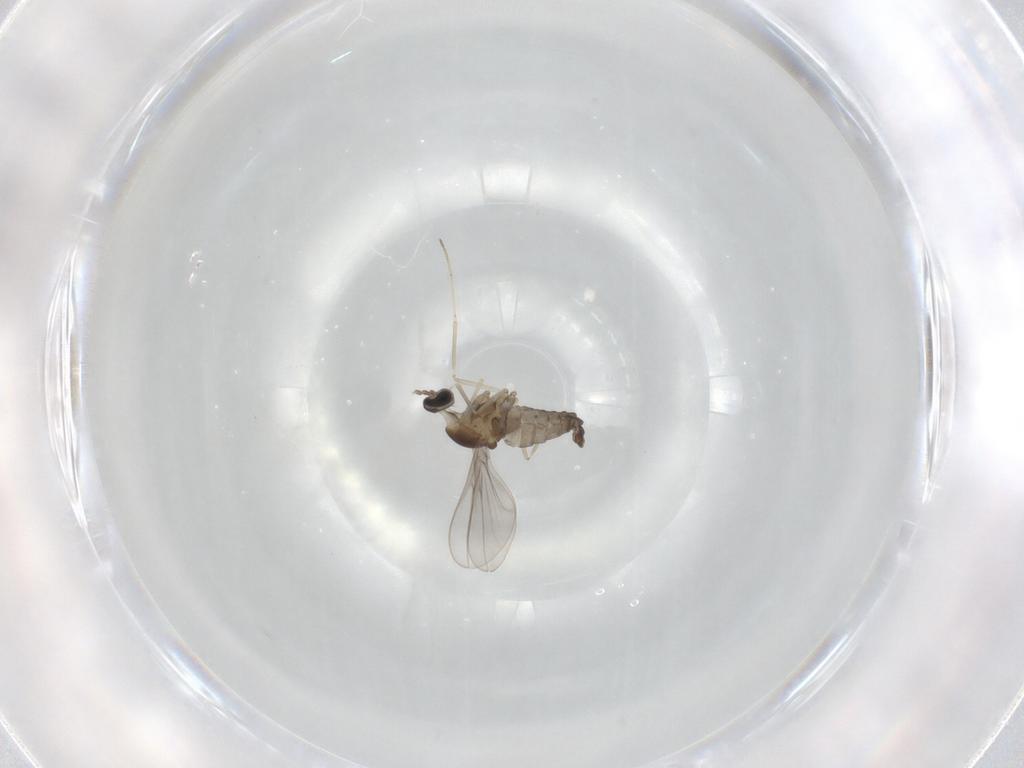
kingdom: Animalia
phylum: Arthropoda
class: Insecta
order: Diptera
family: Cecidomyiidae
